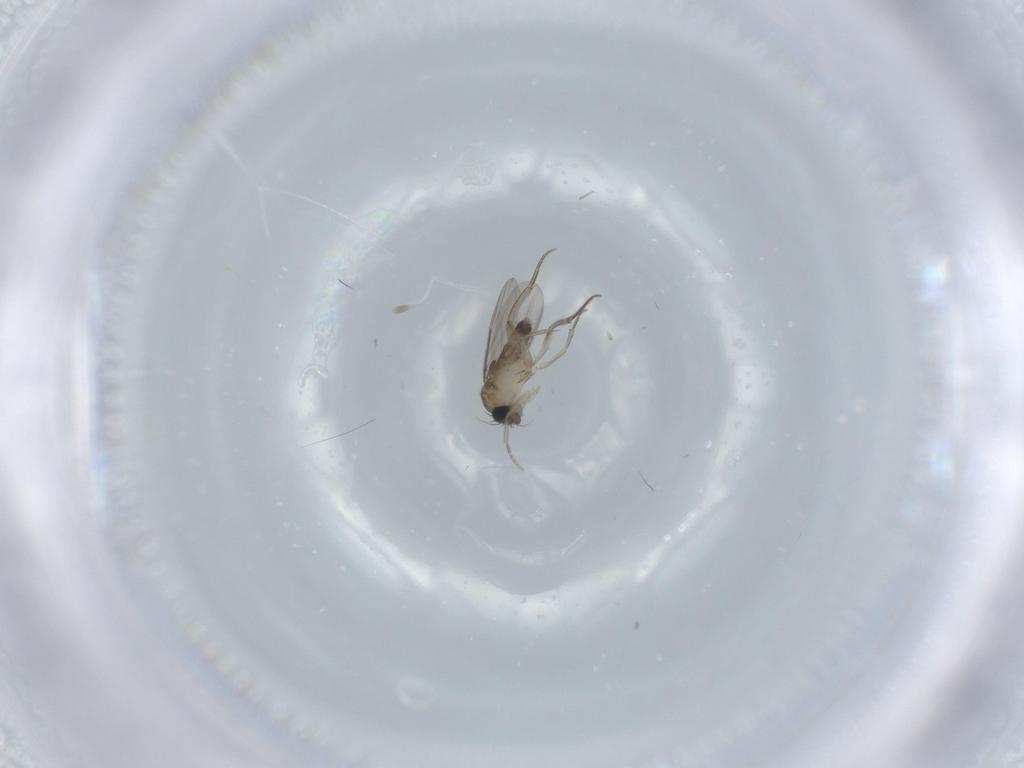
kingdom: Animalia
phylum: Arthropoda
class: Insecta
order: Diptera
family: Phoridae
